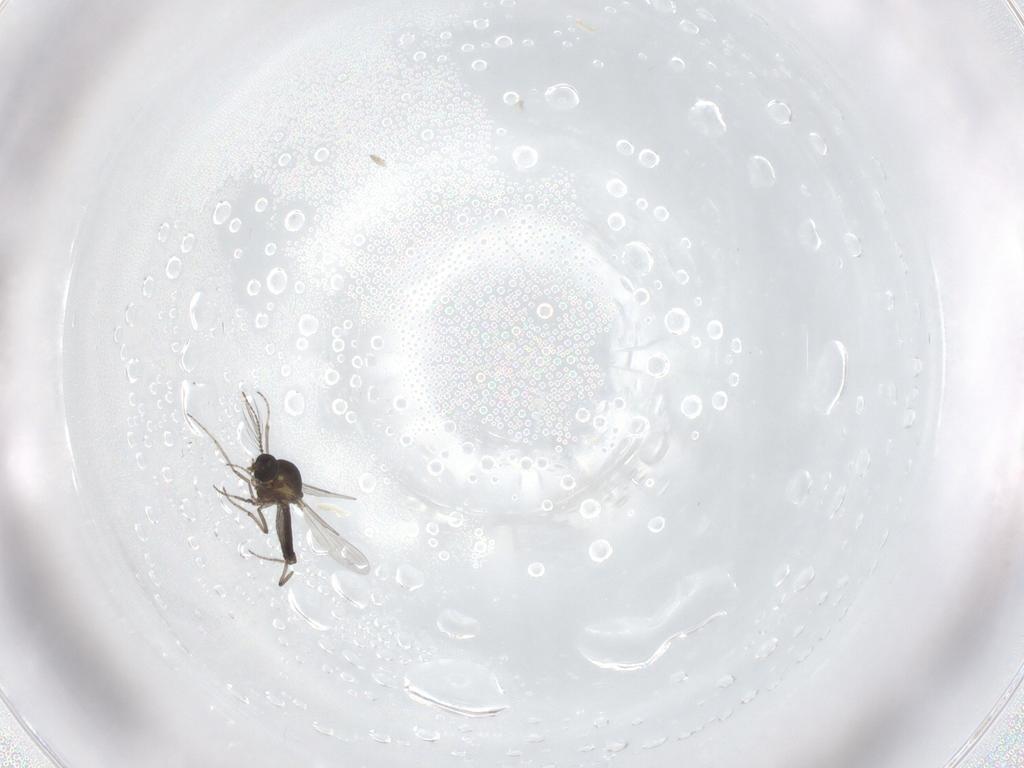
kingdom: Animalia
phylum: Arthropoda
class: Insecta
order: Diptera
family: Ceratopogonidae
